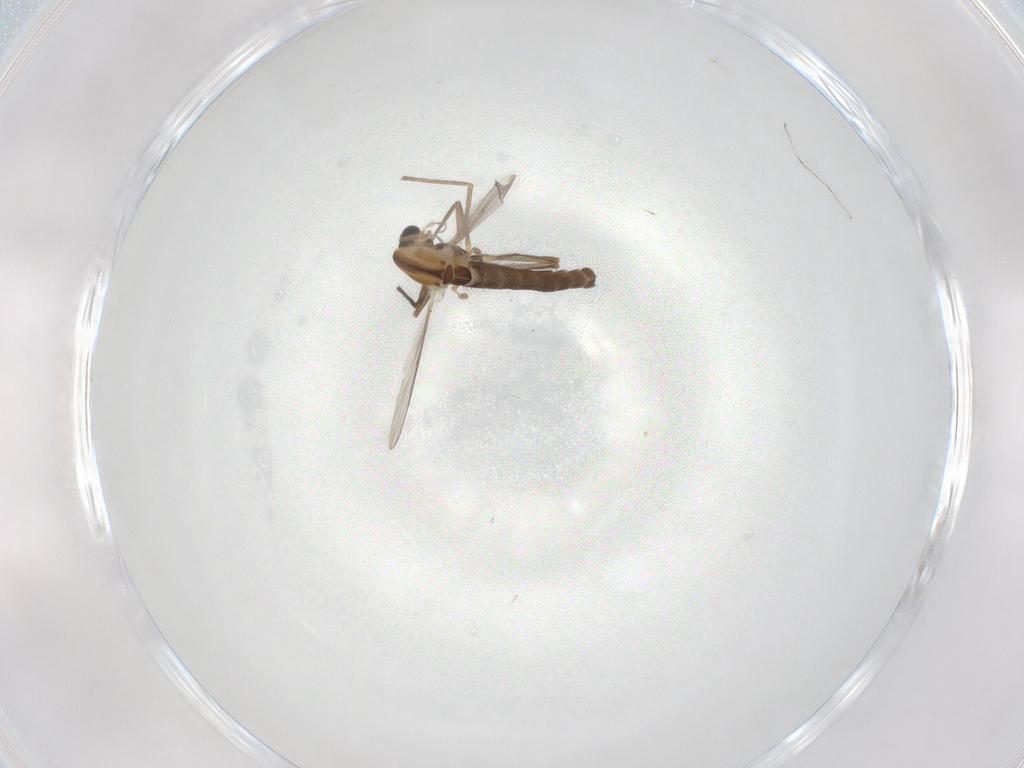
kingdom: Animalia
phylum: Arthropoda
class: Insecta
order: Diptera
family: Chironomidae
